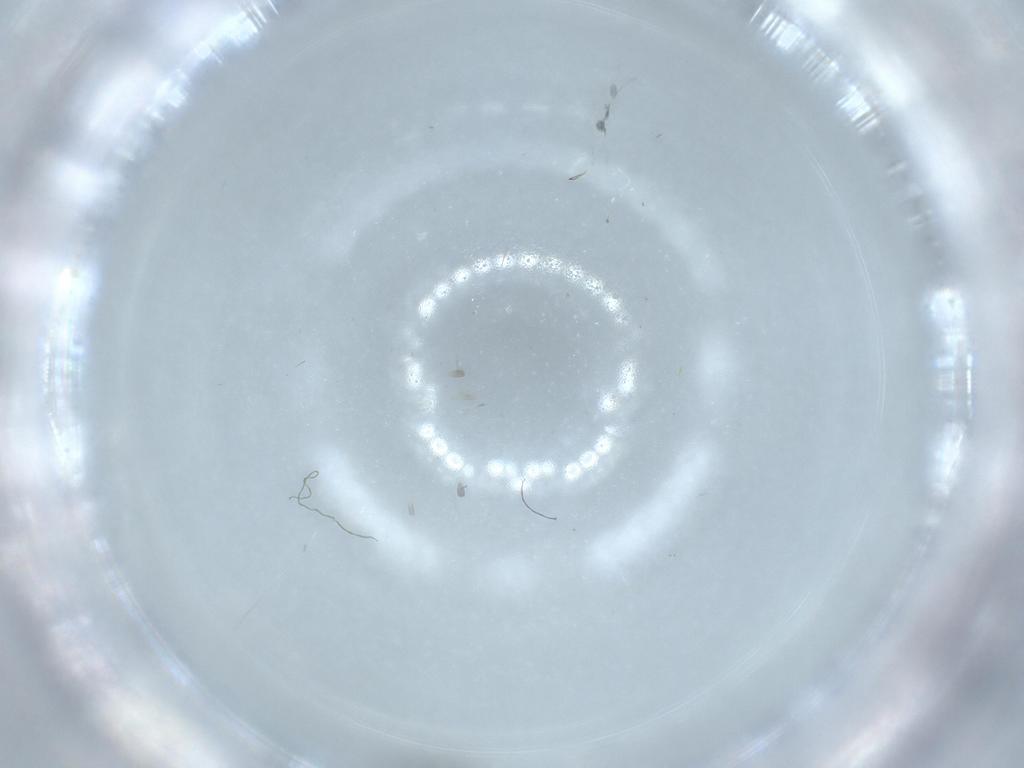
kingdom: Animalia
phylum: Arthropoda
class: Insecta
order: Hymenoptera
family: Platygastridae
